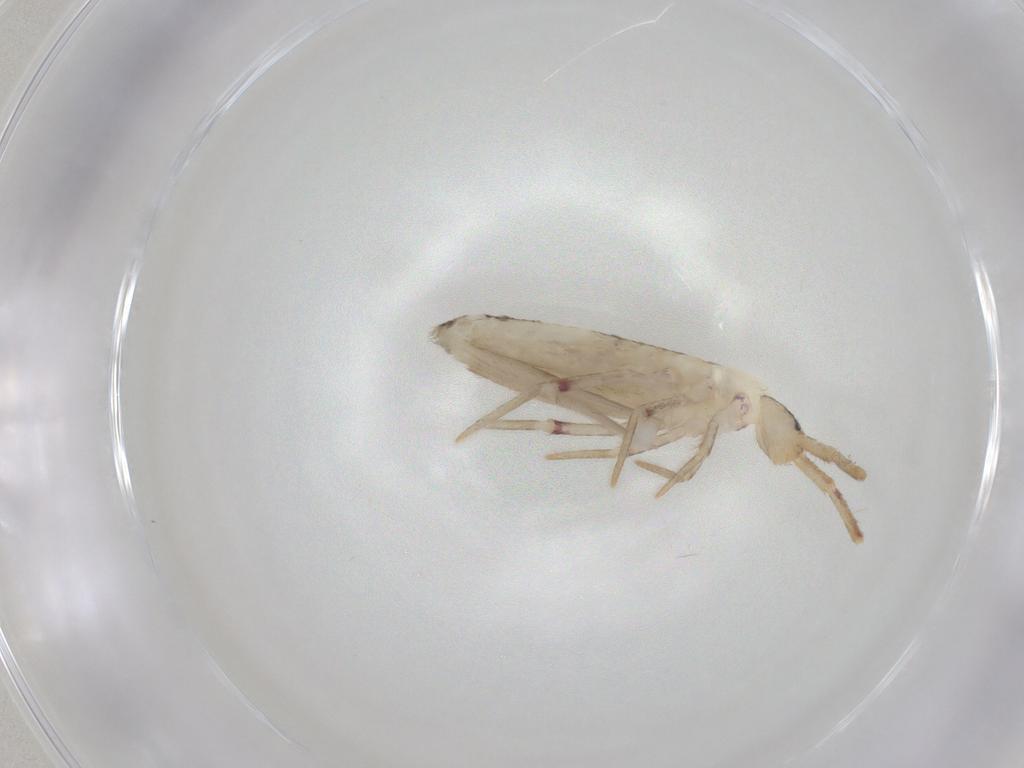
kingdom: Animalia
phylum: Arthropoda
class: Collembola
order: Poduromorpha
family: Hypogastruridae
